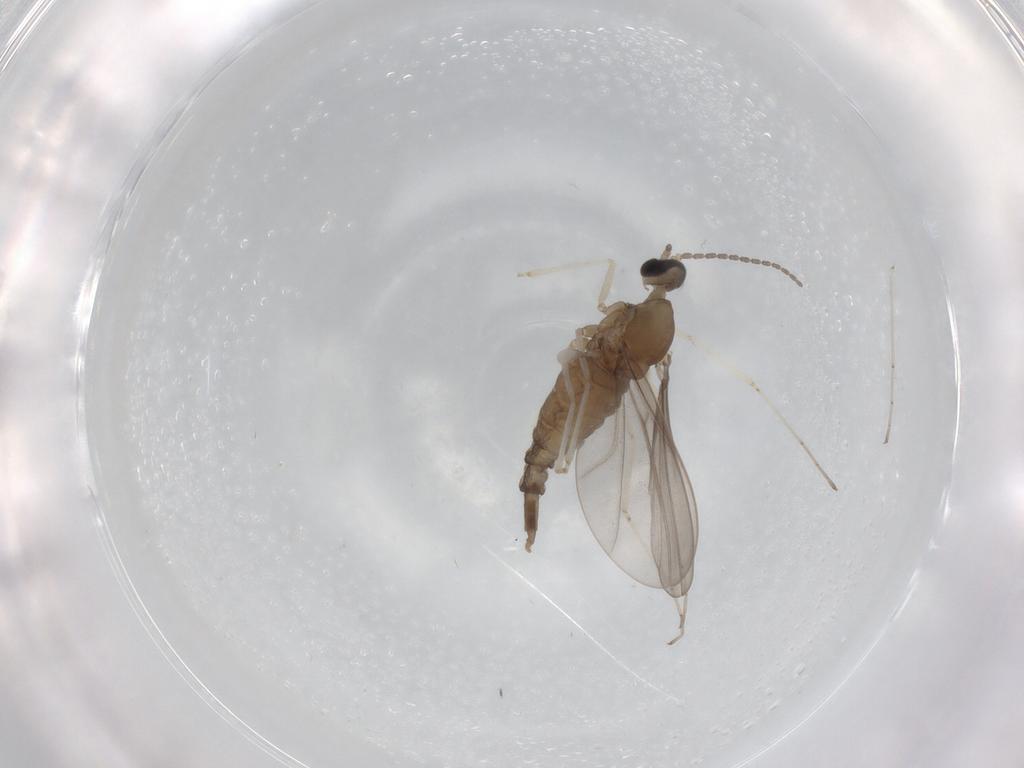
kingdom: Animalia
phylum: Arthropoda
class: Insecta
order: Diptera
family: Cecidomyiidae
